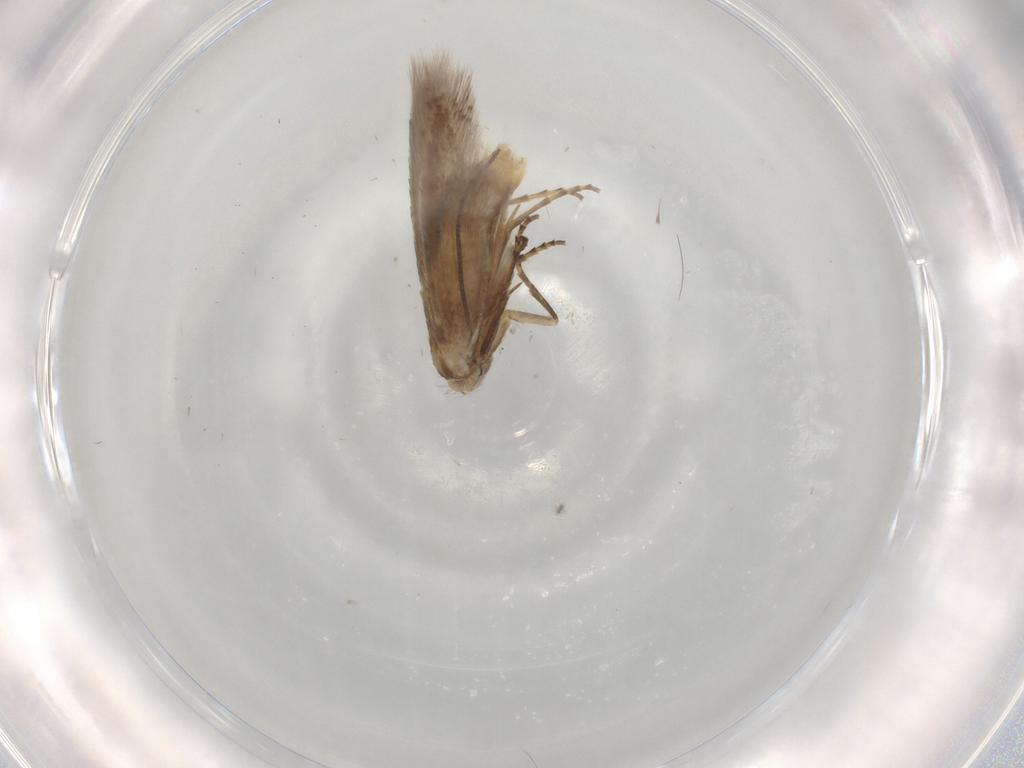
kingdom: Animalia
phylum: Arthropoda
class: Insecta
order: Lepidoptera
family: Bucculatricidae
